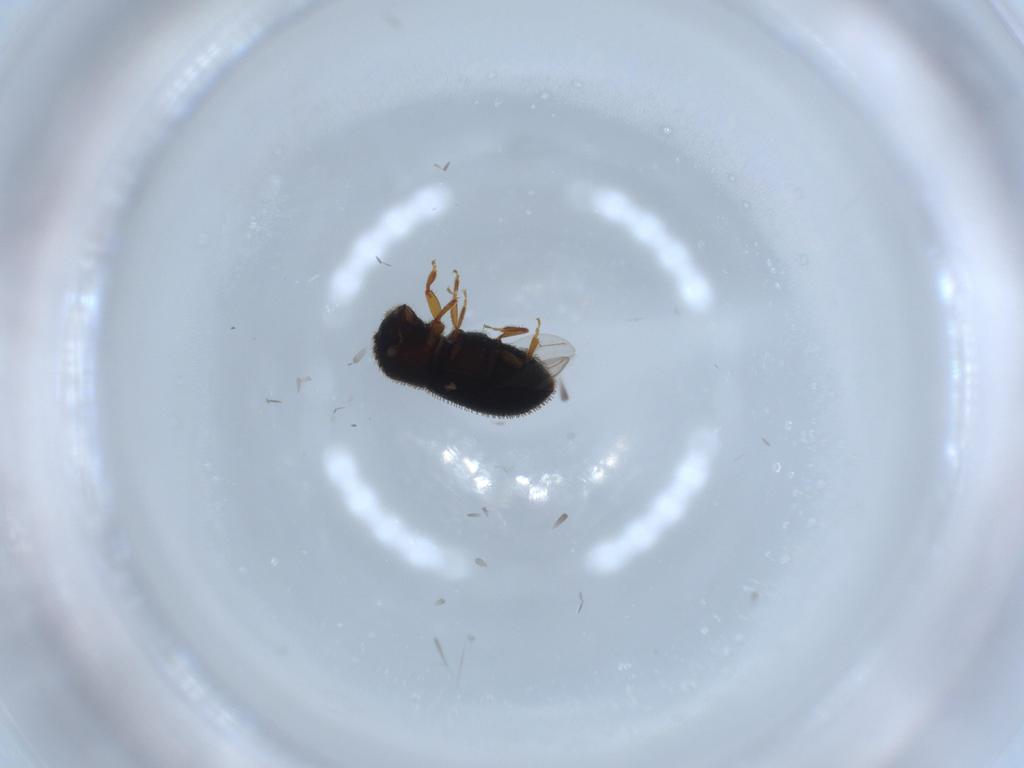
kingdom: Animalia
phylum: Arthropoda
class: Insecta
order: Coleoptera
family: Curculionidae
